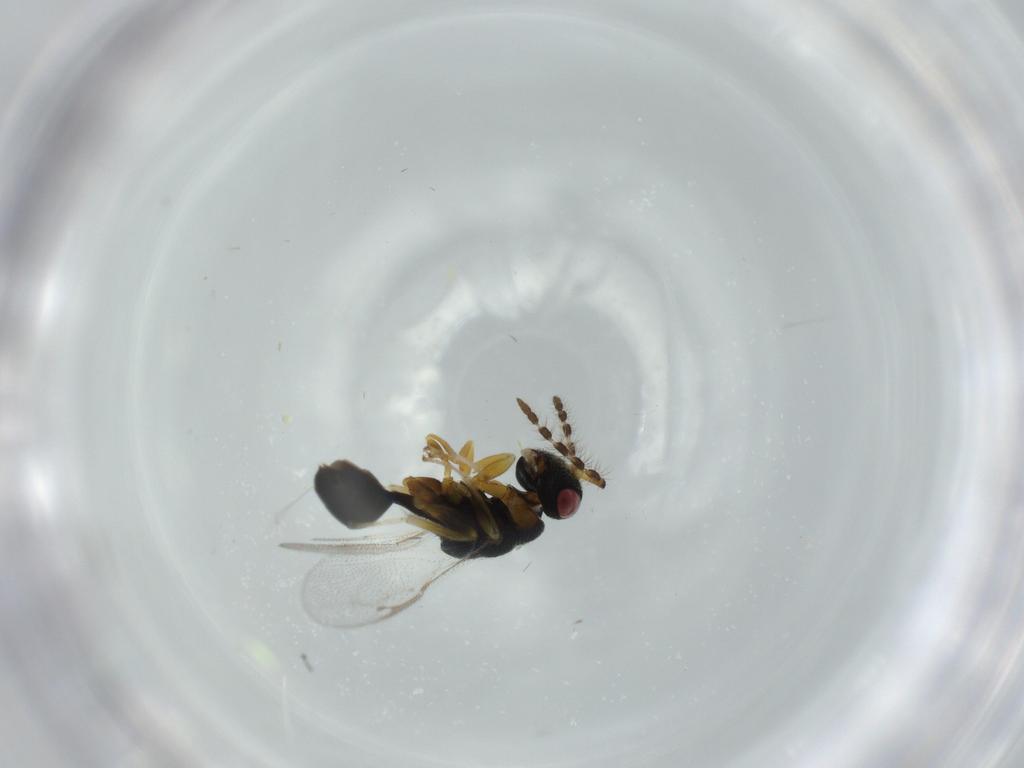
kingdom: Animalia
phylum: Arthropoda
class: Insecta
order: Hymenoptera
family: Eurytomidae
